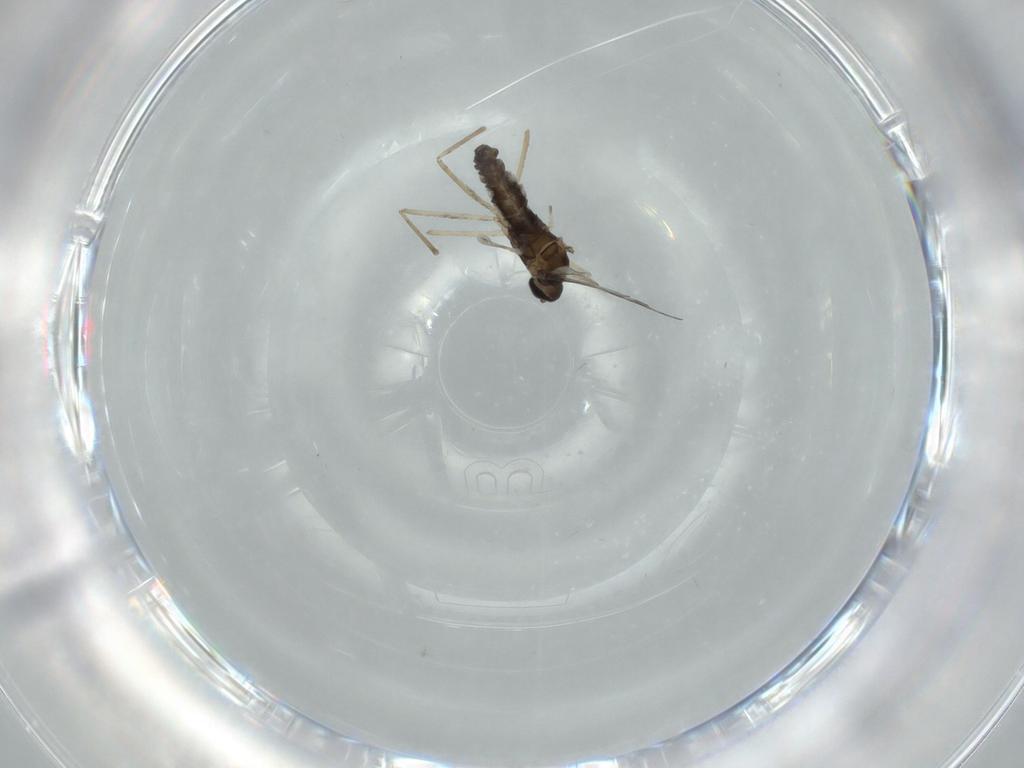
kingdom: Animalia
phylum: Arthropoda
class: Insecta
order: Diptera
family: Cecidomyiidae
